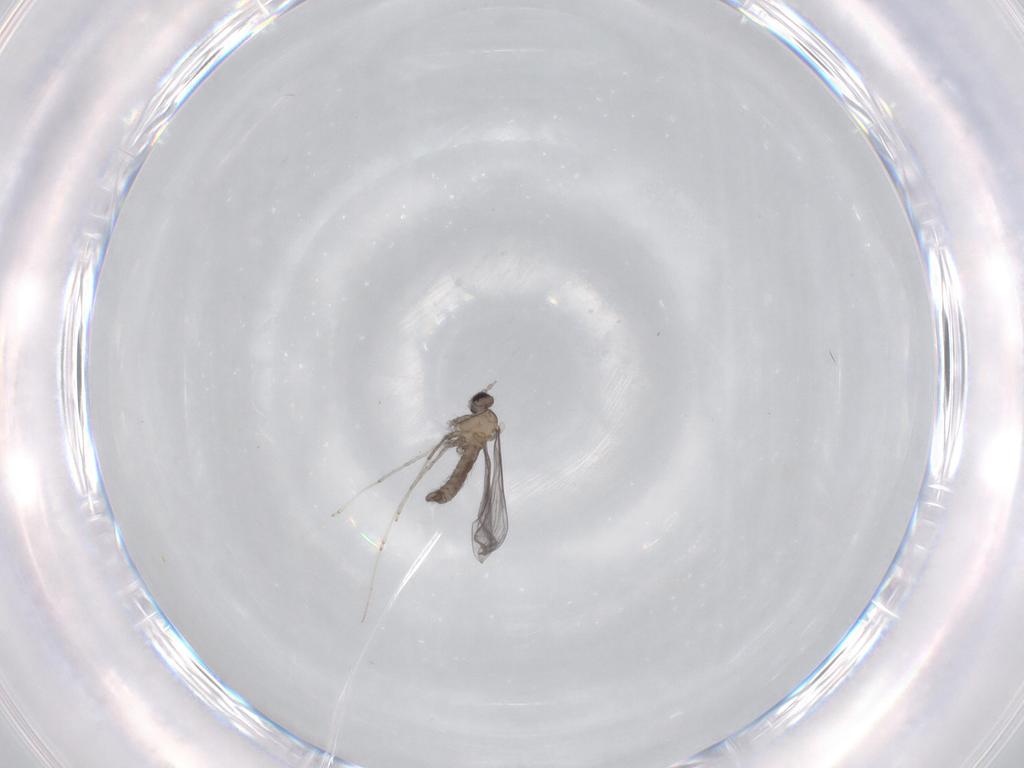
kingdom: Animalia
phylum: Arthropoda
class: Insecta
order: Diptera
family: Cecidomyiidae
